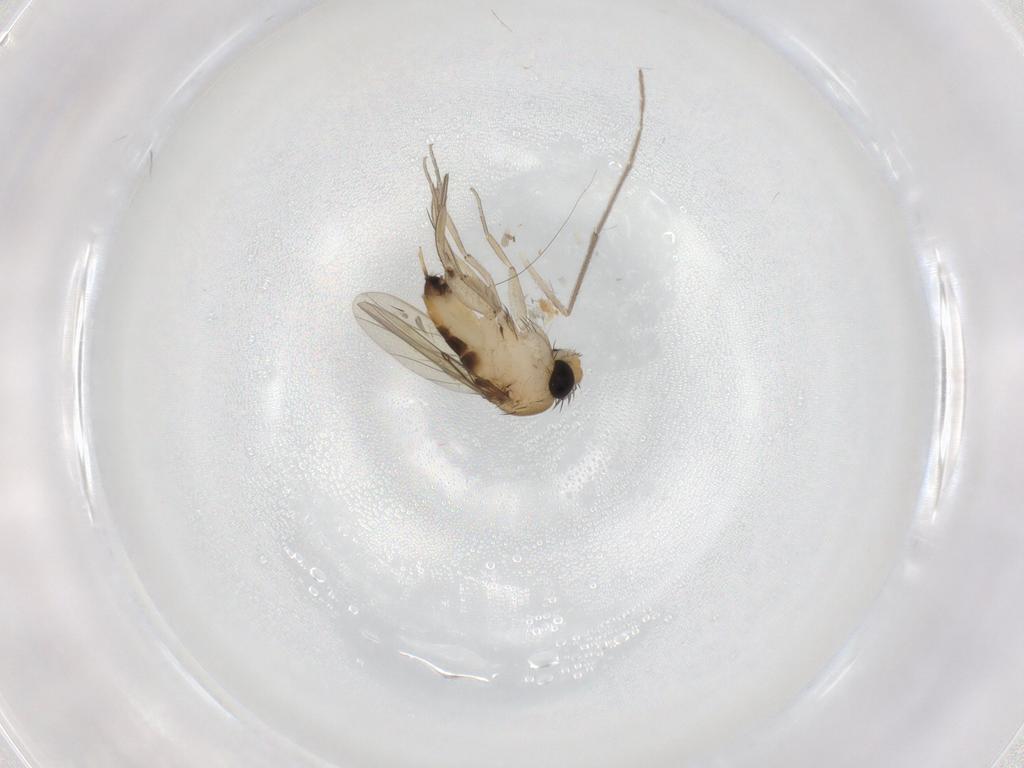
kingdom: Animalia
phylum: Arthropoda
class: Insecta
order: Diptera
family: Chironomidae
